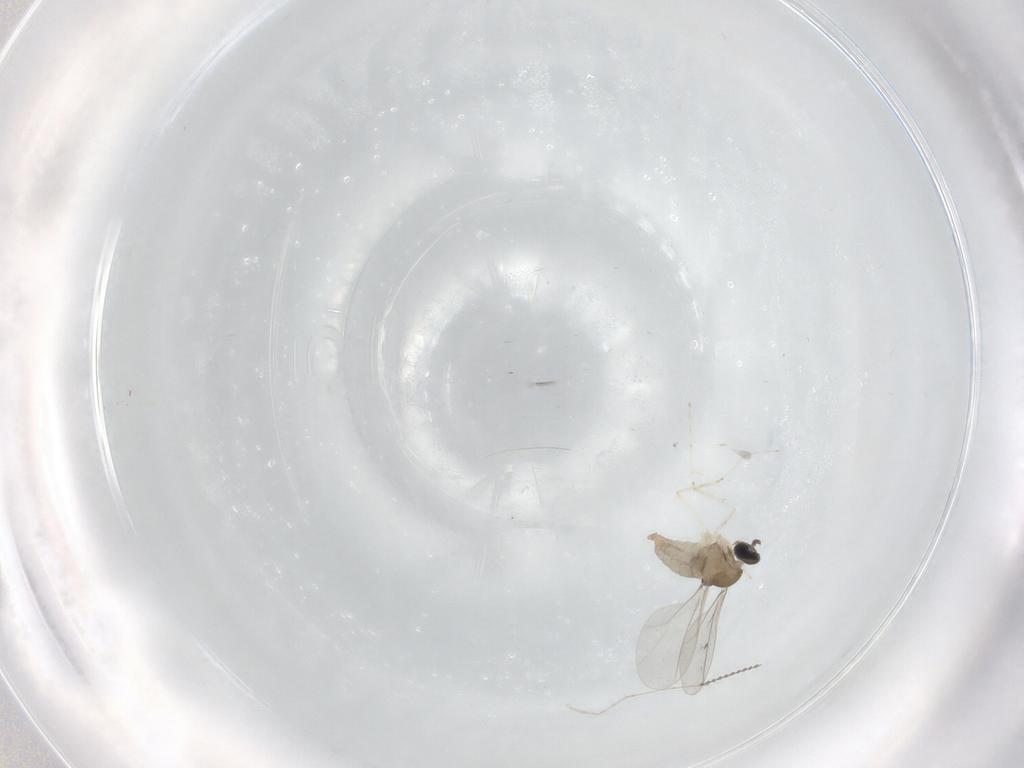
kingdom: Animalia
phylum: Arthropoda
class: Insecta
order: Diptera
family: Cecidomyiidae
